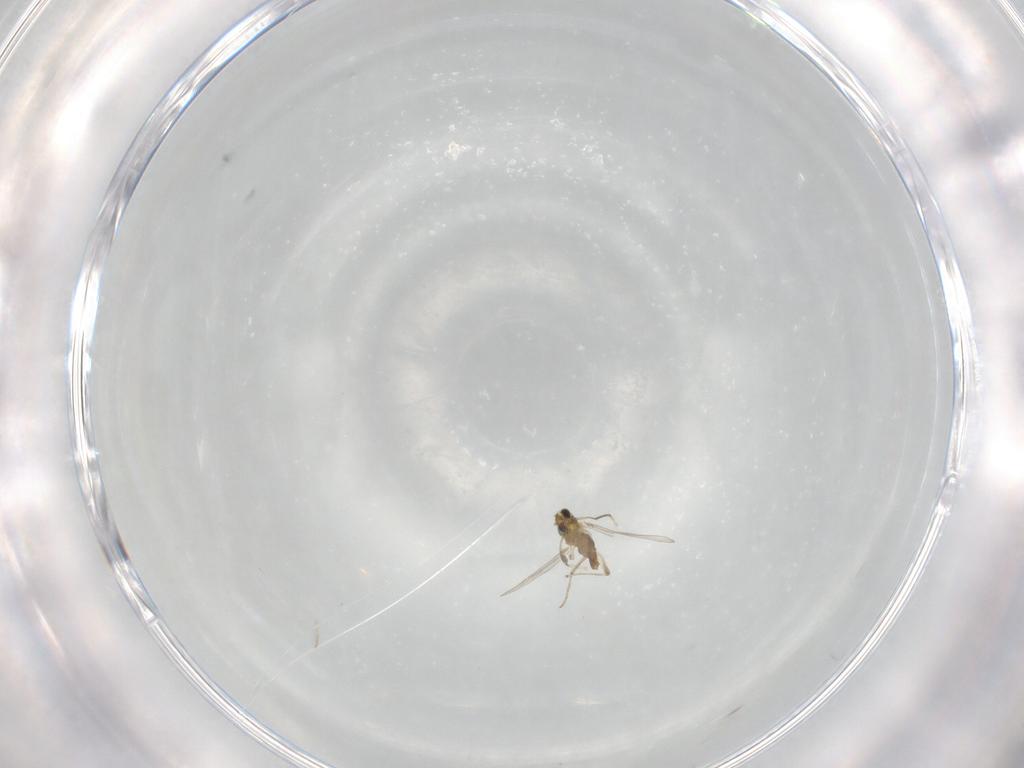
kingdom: Animalia
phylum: Arthropoda
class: Insecta
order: Diptera
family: Chironomidae
